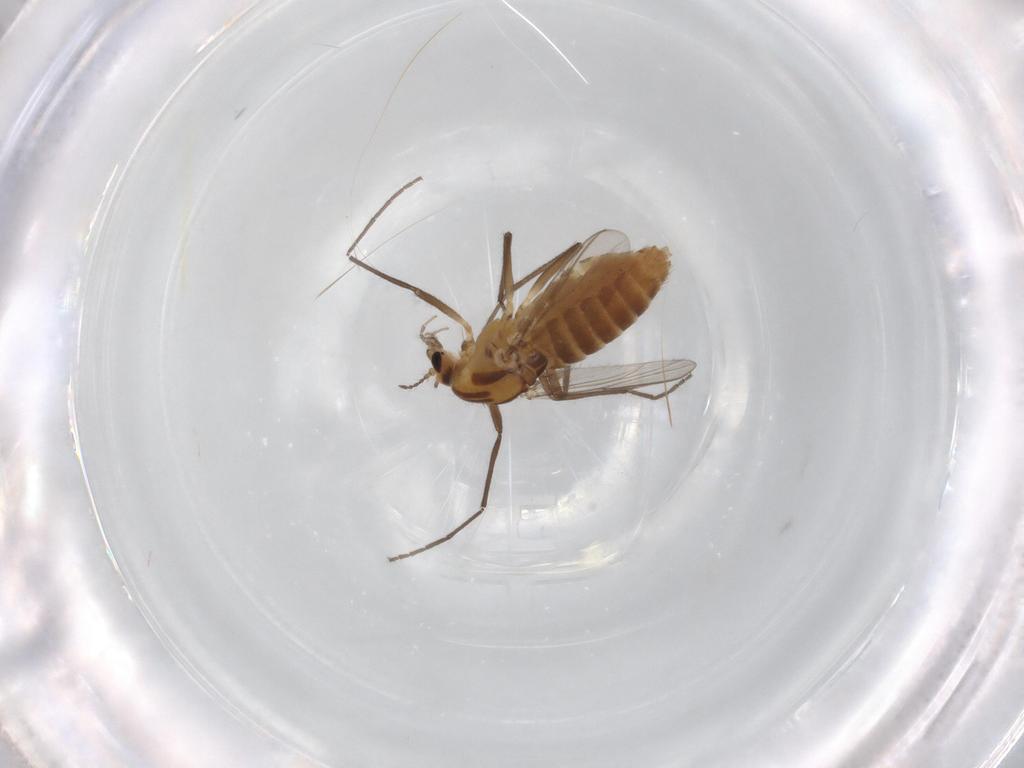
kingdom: Animalia
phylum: Arthropoda
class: Insecta
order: Diptera
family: Chironomidae
